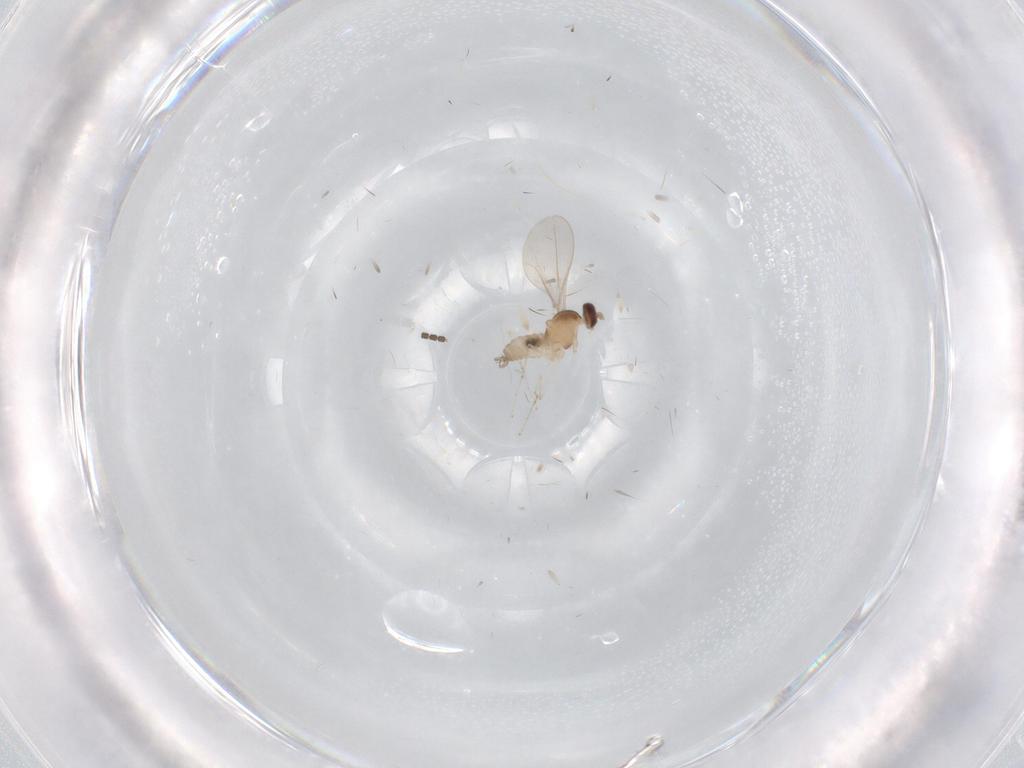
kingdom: Animalia
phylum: Arthropoda
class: Insecta
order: Diptera
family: Cecidomyiidae
